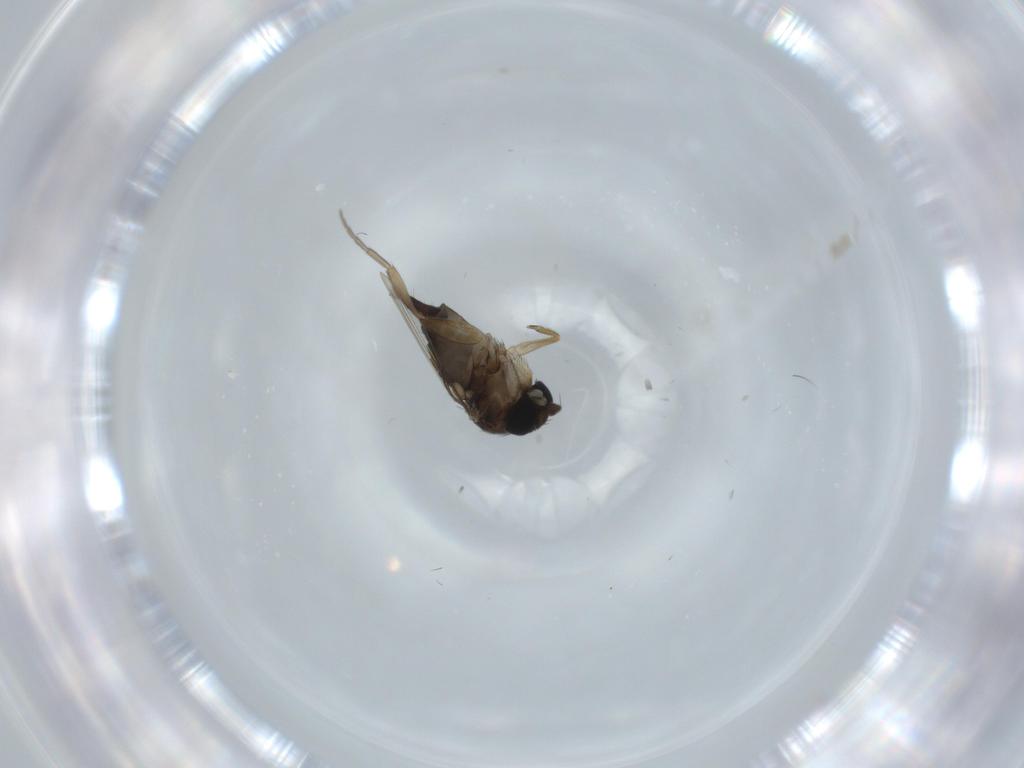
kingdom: Animalia
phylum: Arthropoda
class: Insecta
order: Diptera
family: Phoridae
